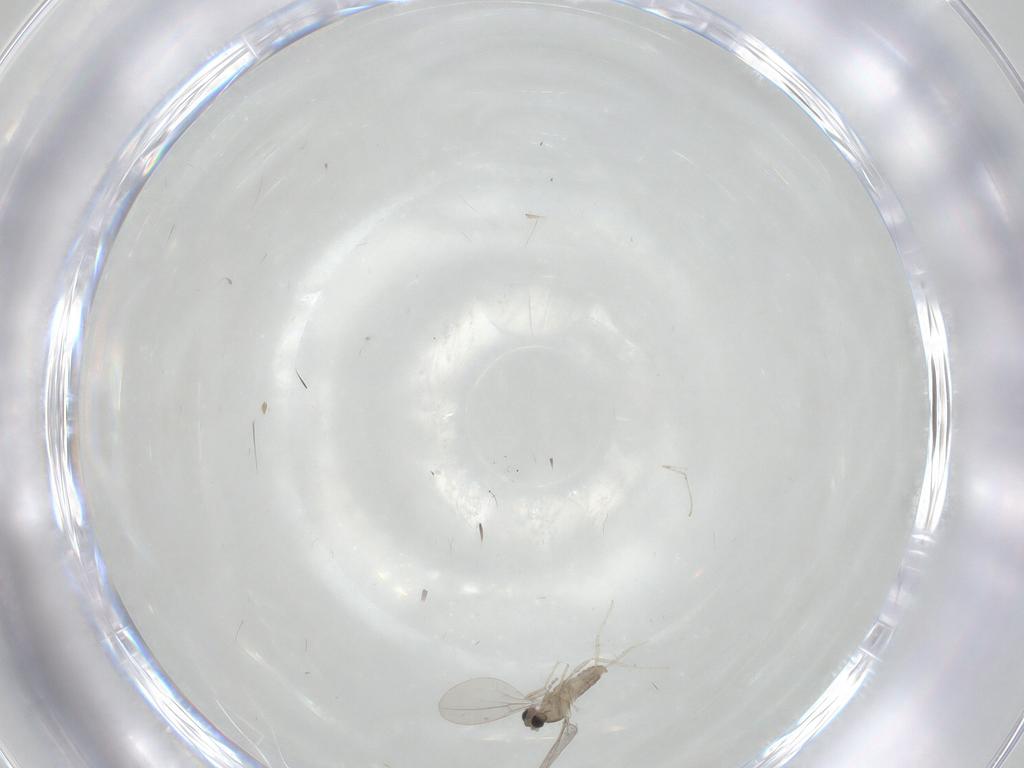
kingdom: Animalia
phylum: Arthropoda
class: Insecta
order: Diptera
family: Cecidomyiidae
